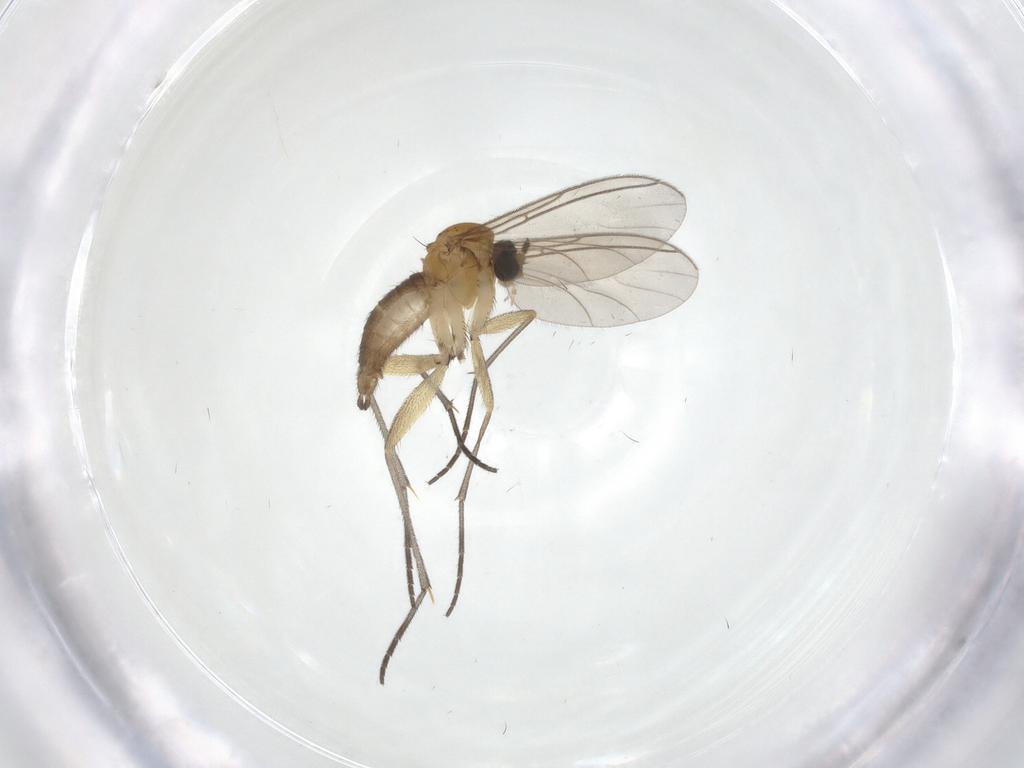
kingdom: Animalia
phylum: Arthropoda
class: Insecta
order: Diptera
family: Sciaridae
